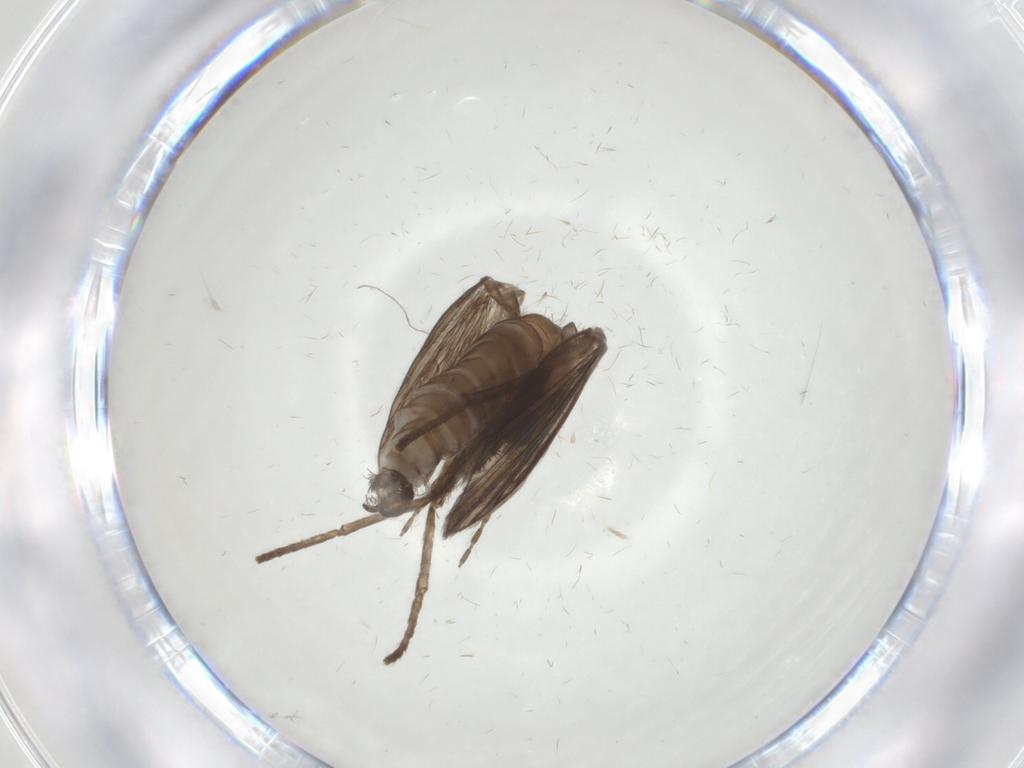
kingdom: Animalia
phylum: Arthropoda
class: Insecta
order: Diptera
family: Psychodidae
